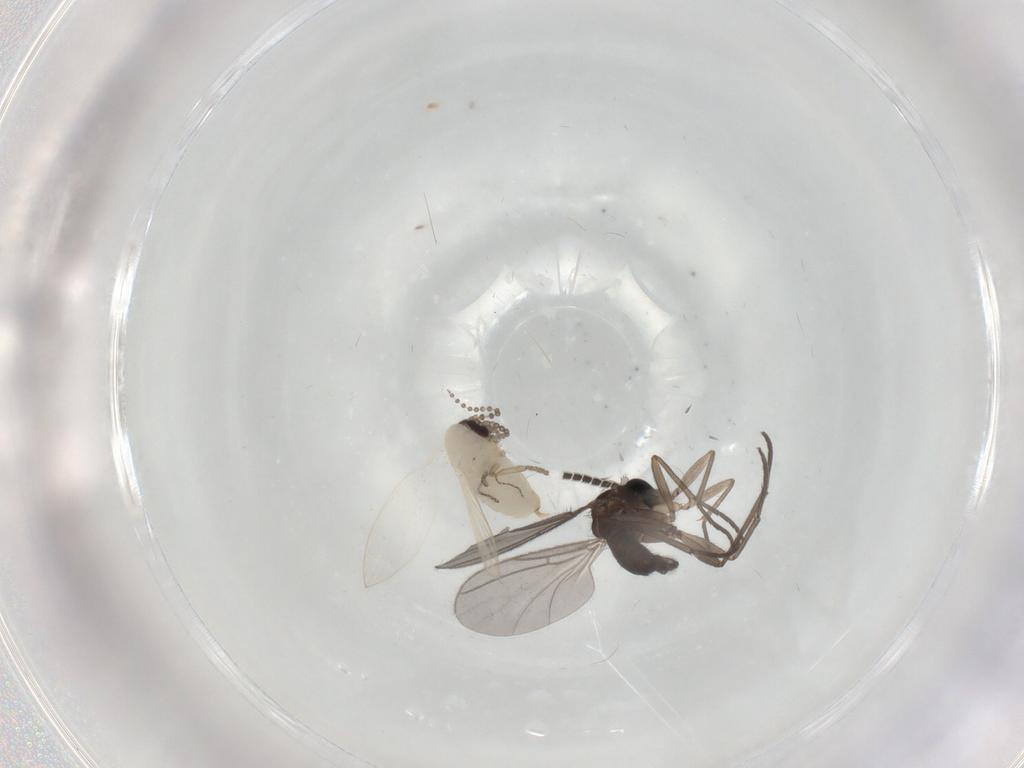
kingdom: Animalia
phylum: Arthropoda
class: Insecta
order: Diptera
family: Psychodidae
